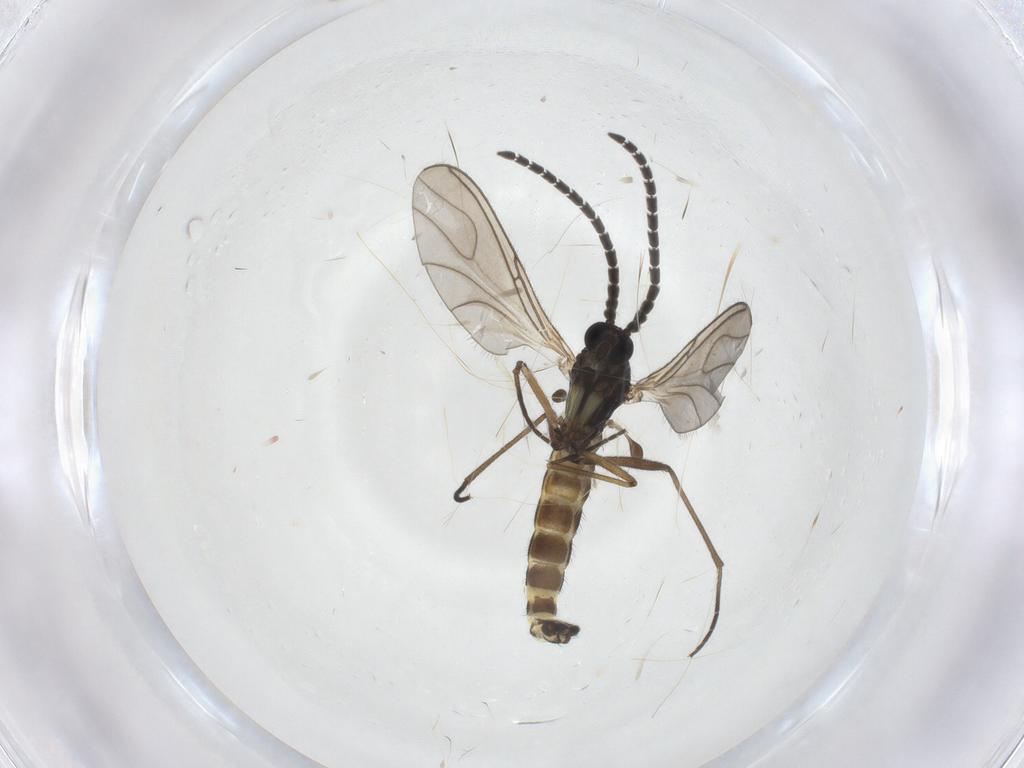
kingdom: Animalia
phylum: Arthropoda
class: Insecta
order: Diptera
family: Sciaridae
